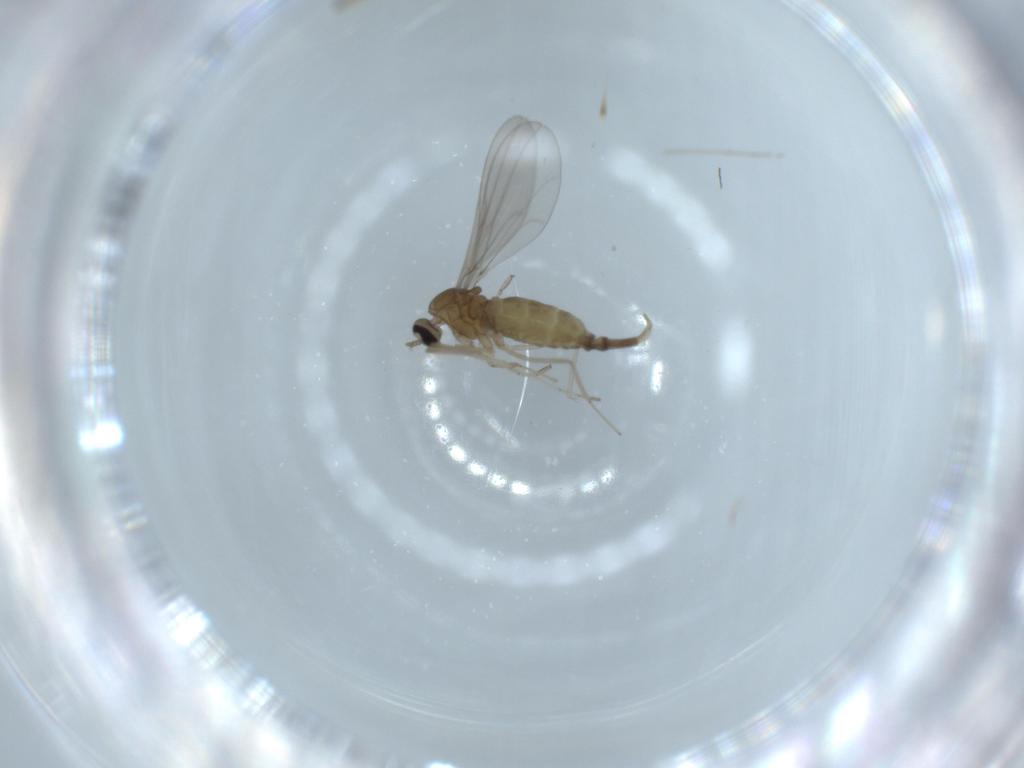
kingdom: Animalia
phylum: Arthropoda
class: Insecta
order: Diptera
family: Cecidomyiidae
